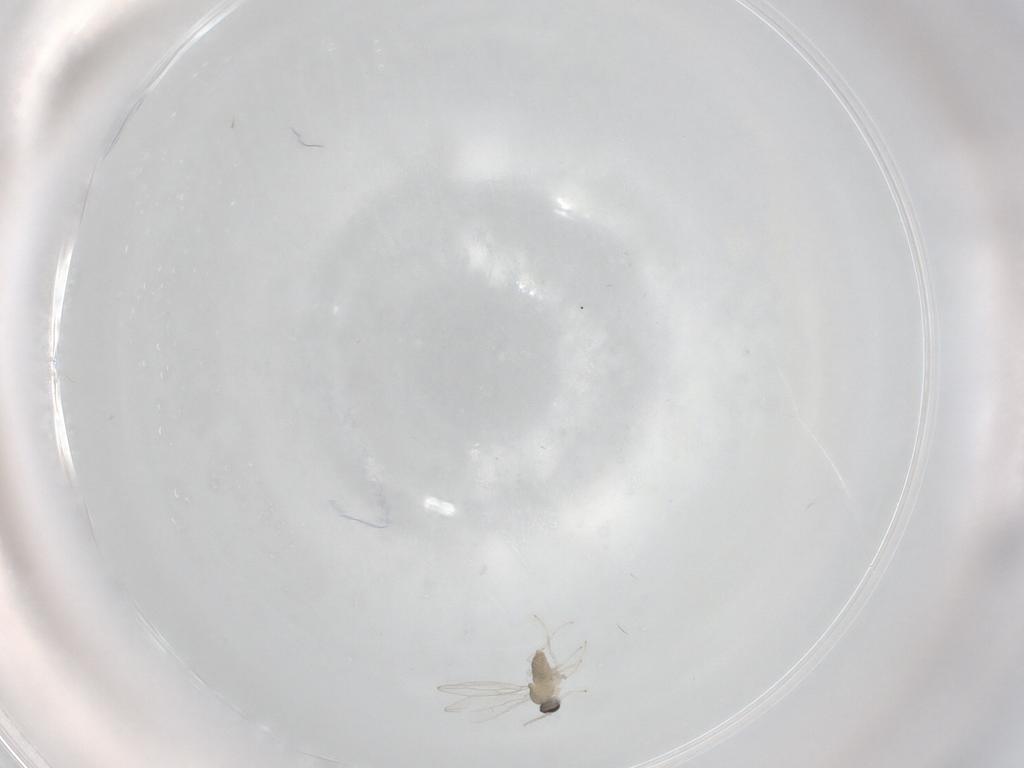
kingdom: Animalia
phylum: Arthropoda
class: Insecta
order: Diptera
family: Cecidomyiidae
